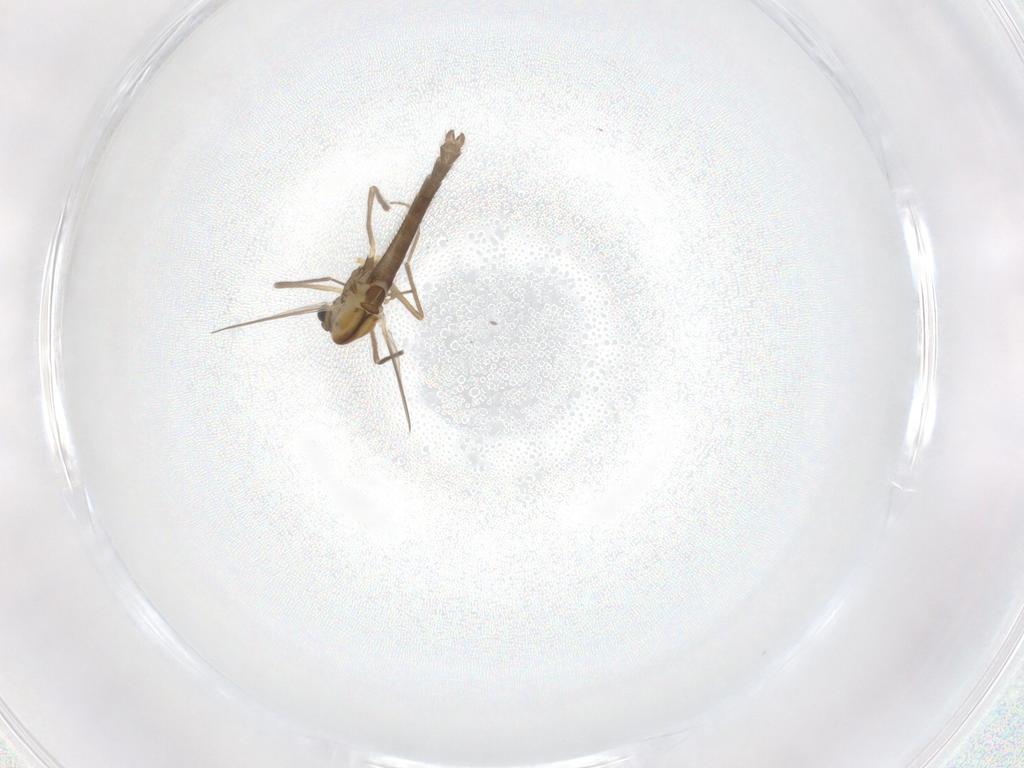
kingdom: Animalia
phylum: Arthropoda
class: Insecta
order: Diptera
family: Chironomidae
